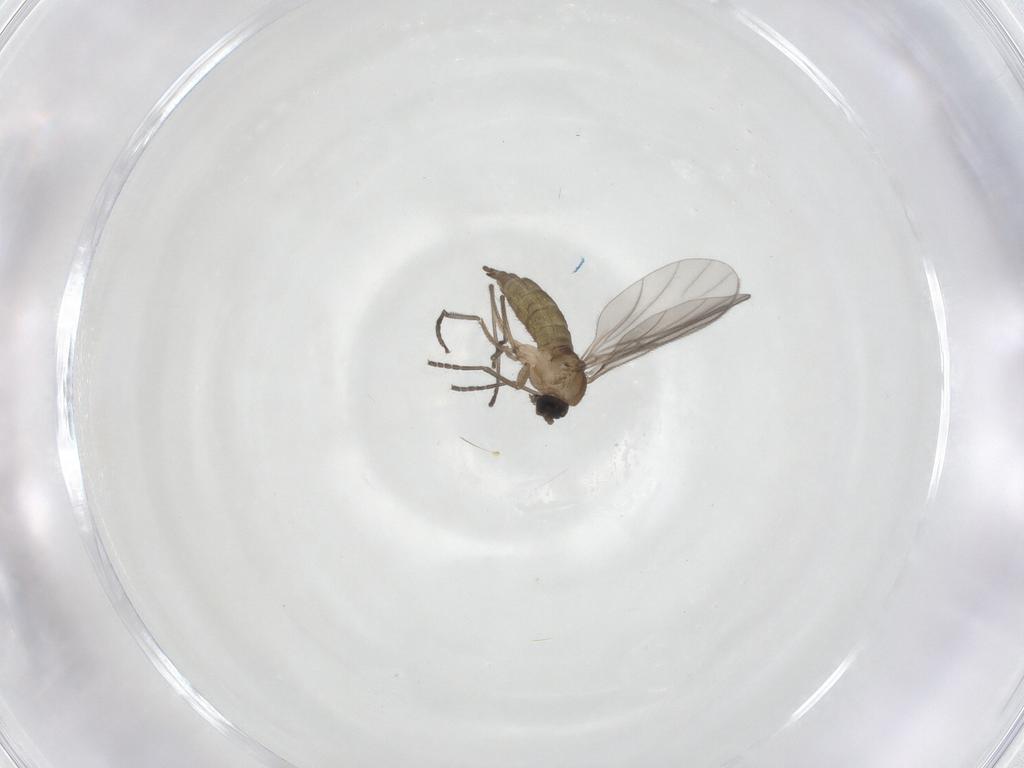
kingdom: Animalia
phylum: Arthropoda
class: Insecta
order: Diptera
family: Sciaridae
